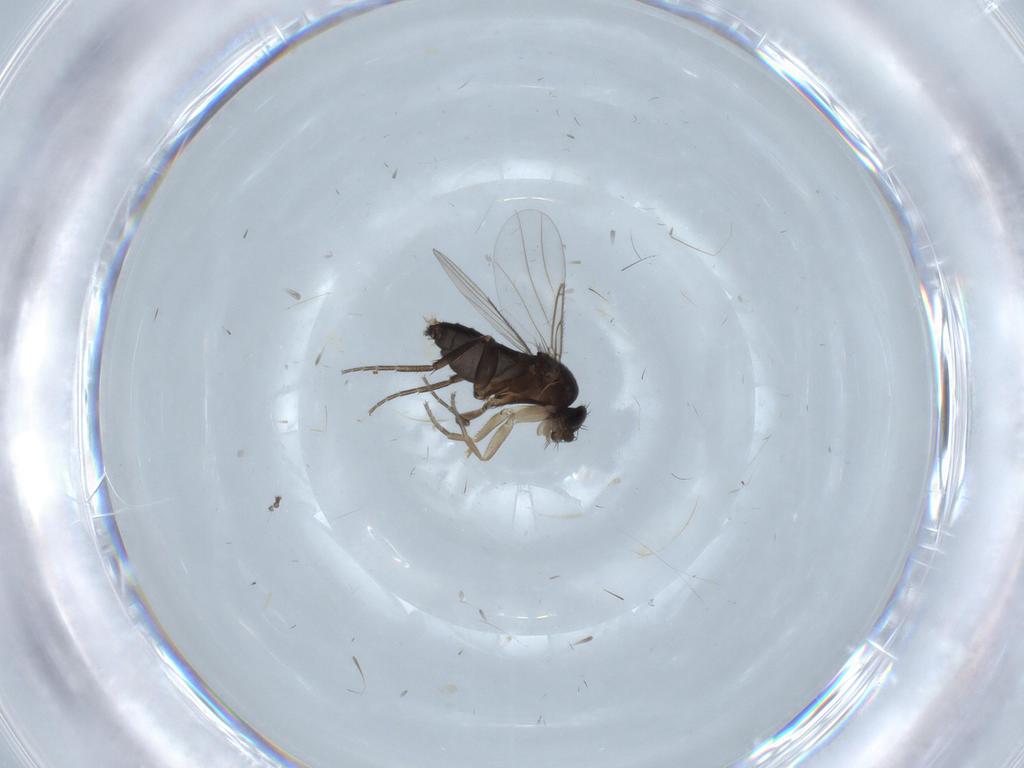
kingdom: Animalia
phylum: Arthropoda
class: Insecta
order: Diptera
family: Phoridae
